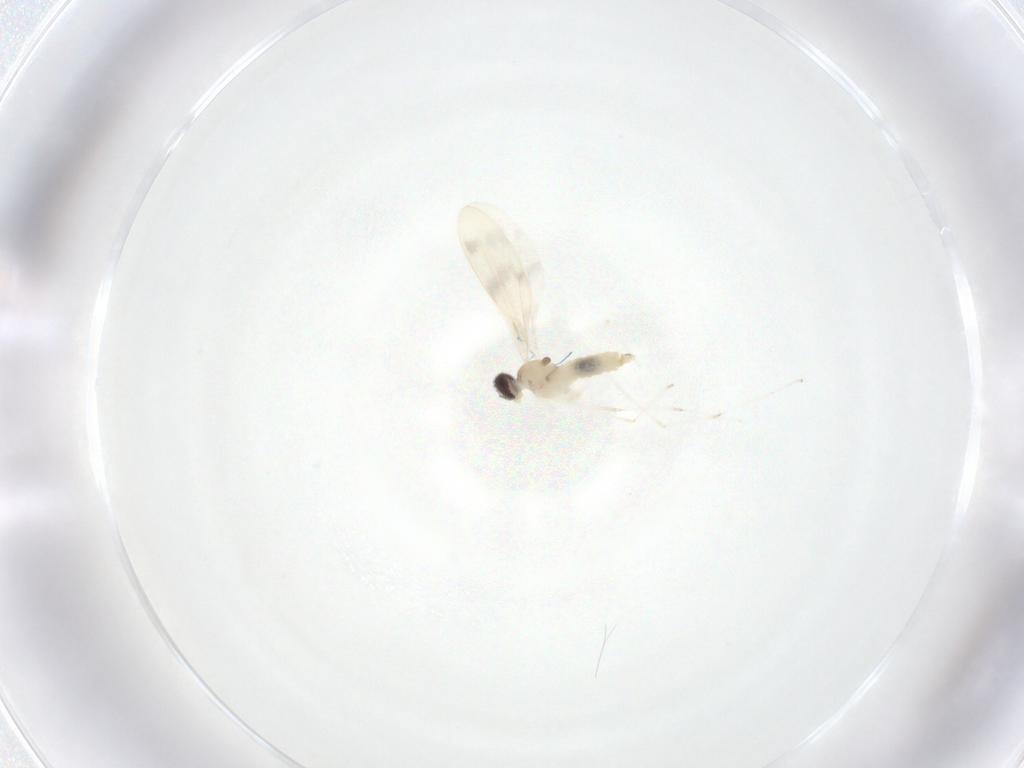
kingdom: Animalia
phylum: Arthropoda
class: Insecta
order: Diptera
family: Cecidomyiidae
